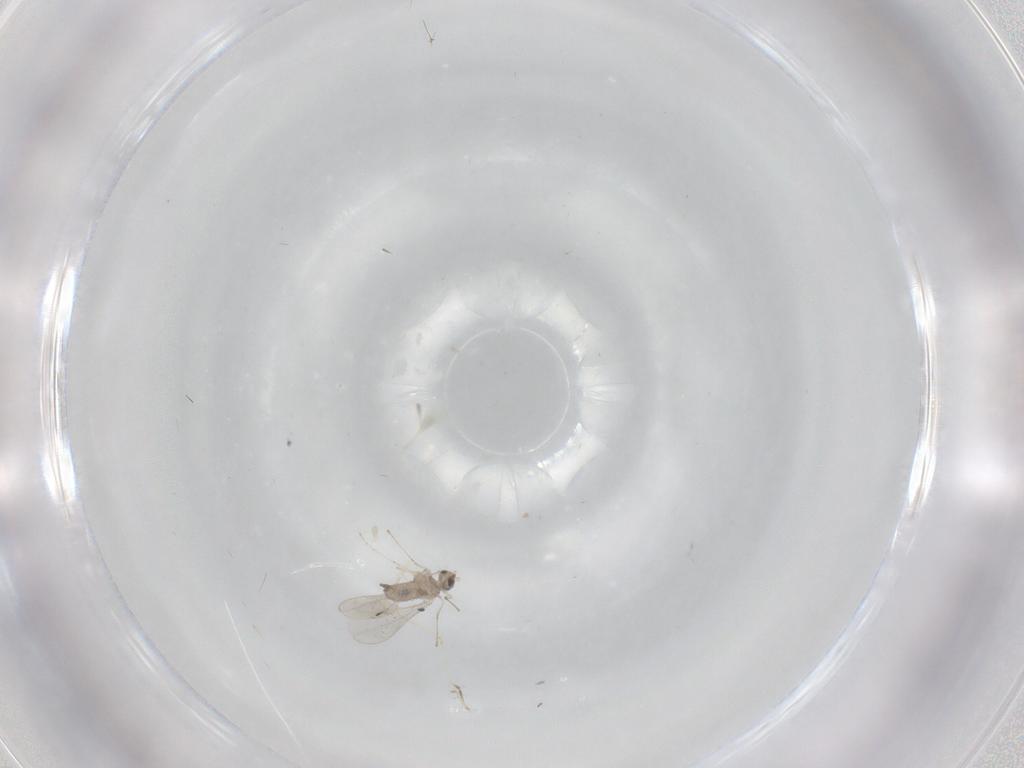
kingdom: Animalia
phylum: Arthropoda
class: Insecta
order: Diptera
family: Cecidomyiidae
